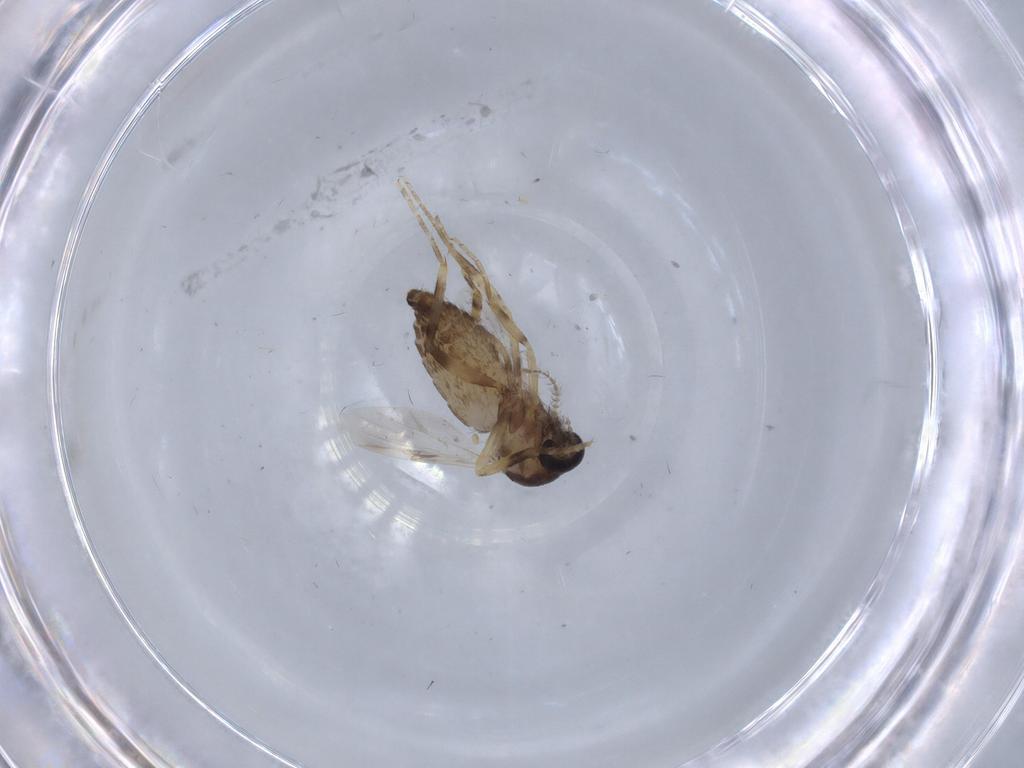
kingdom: Animalia
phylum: Arthropoda
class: Insecta
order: Diptera
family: Ceratopogonidae
